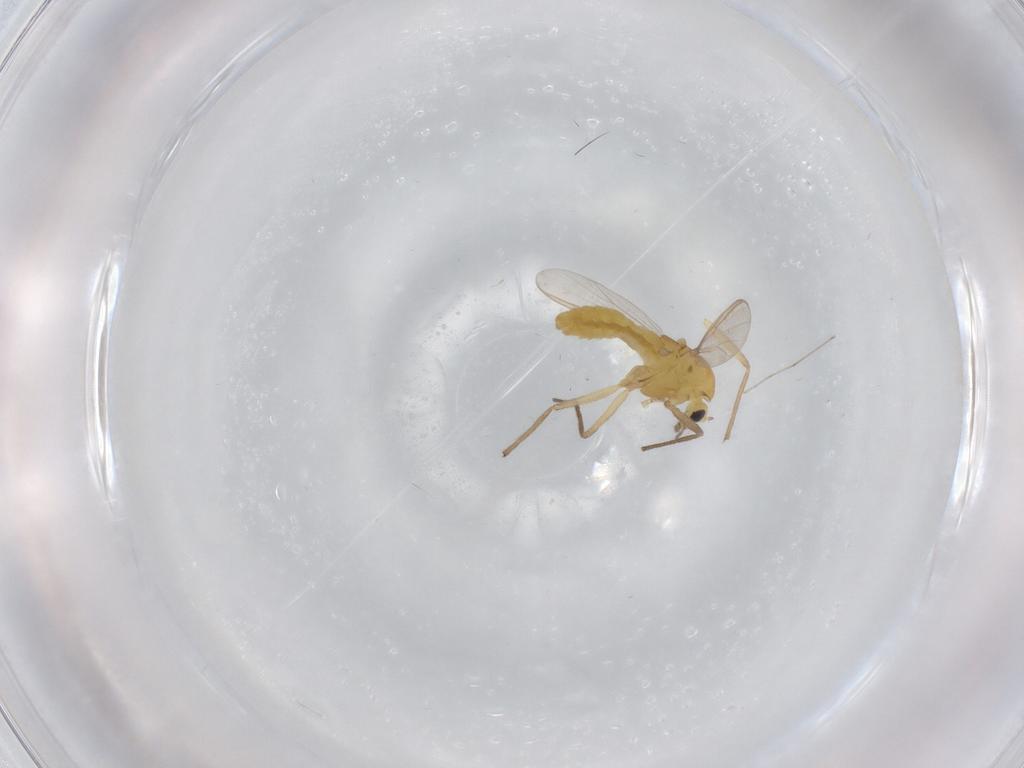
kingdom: Animalia
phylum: Arthropoda
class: Insecta
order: Diptera
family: Chironomidae
